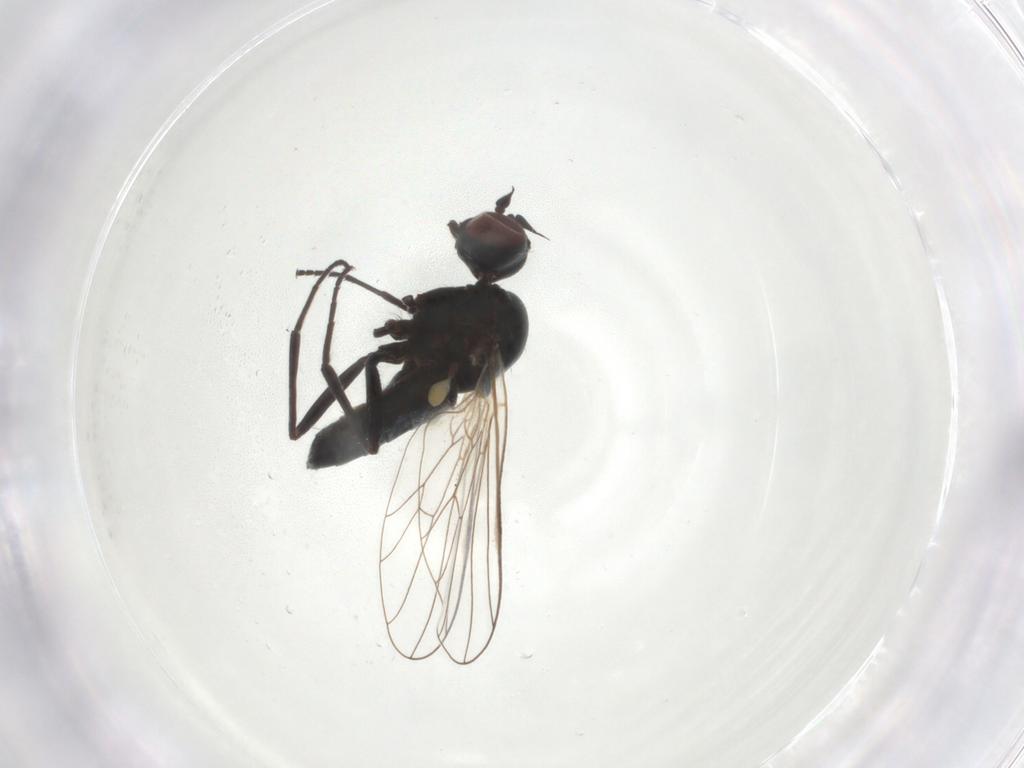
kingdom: Animalia
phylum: Arthropoda
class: Insecta
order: Diptera
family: Dolichopodidae
